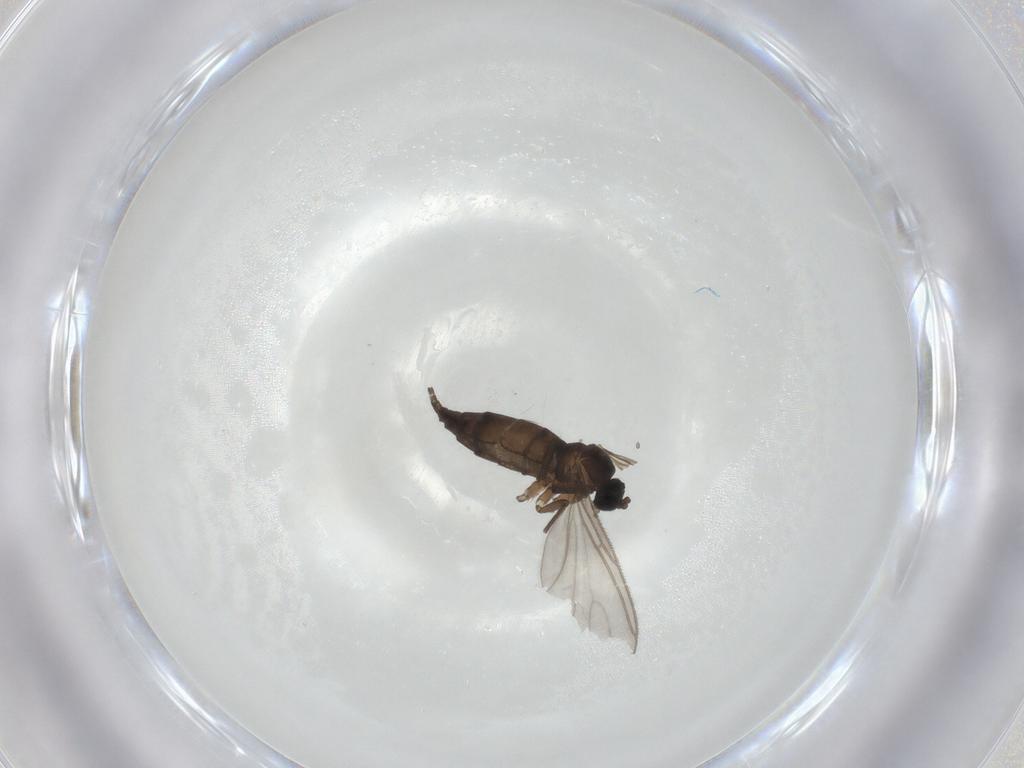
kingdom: Animalia
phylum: Arthropoda
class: Insecta
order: Diptera
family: Sciaridae
